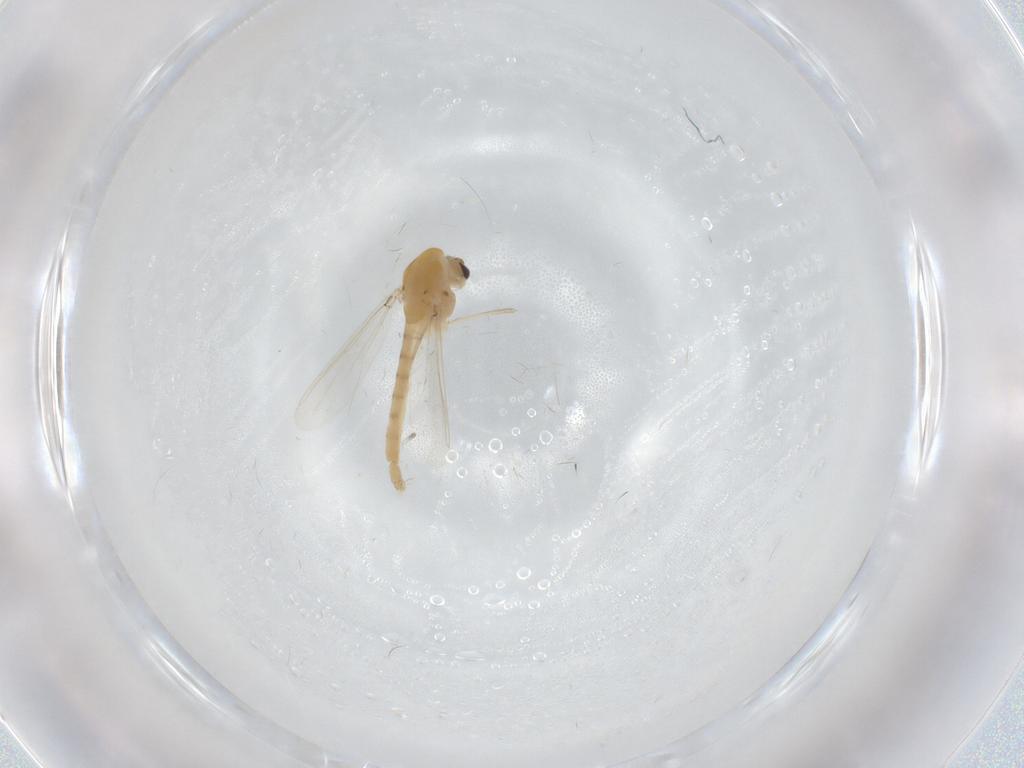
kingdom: Animalia
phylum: Arthropoda
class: Insecta
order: Diptera
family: Chironomidae
